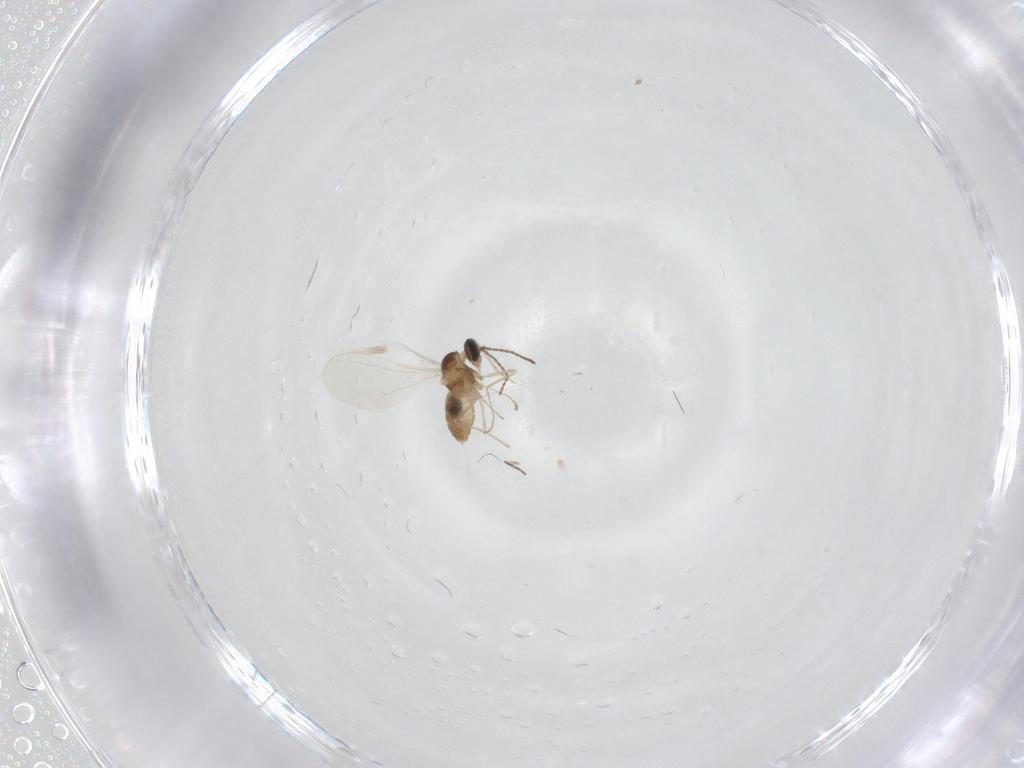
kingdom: Animalia
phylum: Arthropoda
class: Insecta
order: Diptera
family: Cecidomyiidae
